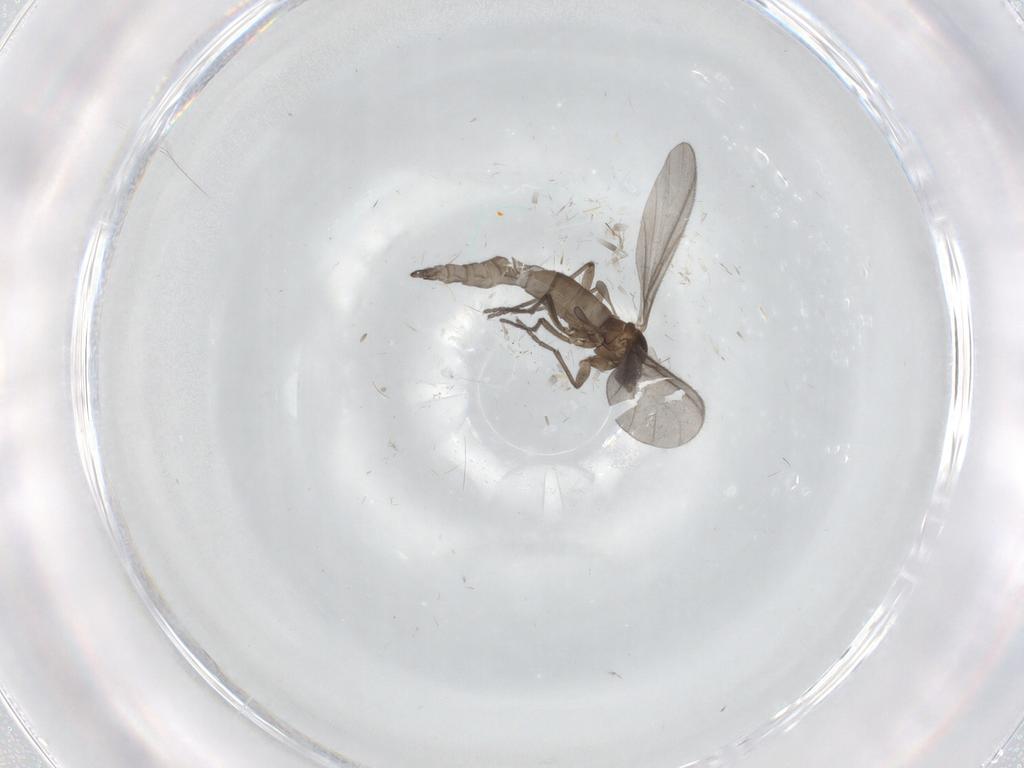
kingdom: Animalia
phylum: Arthropoda
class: Insecta
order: Diptera
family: Sciaridae
